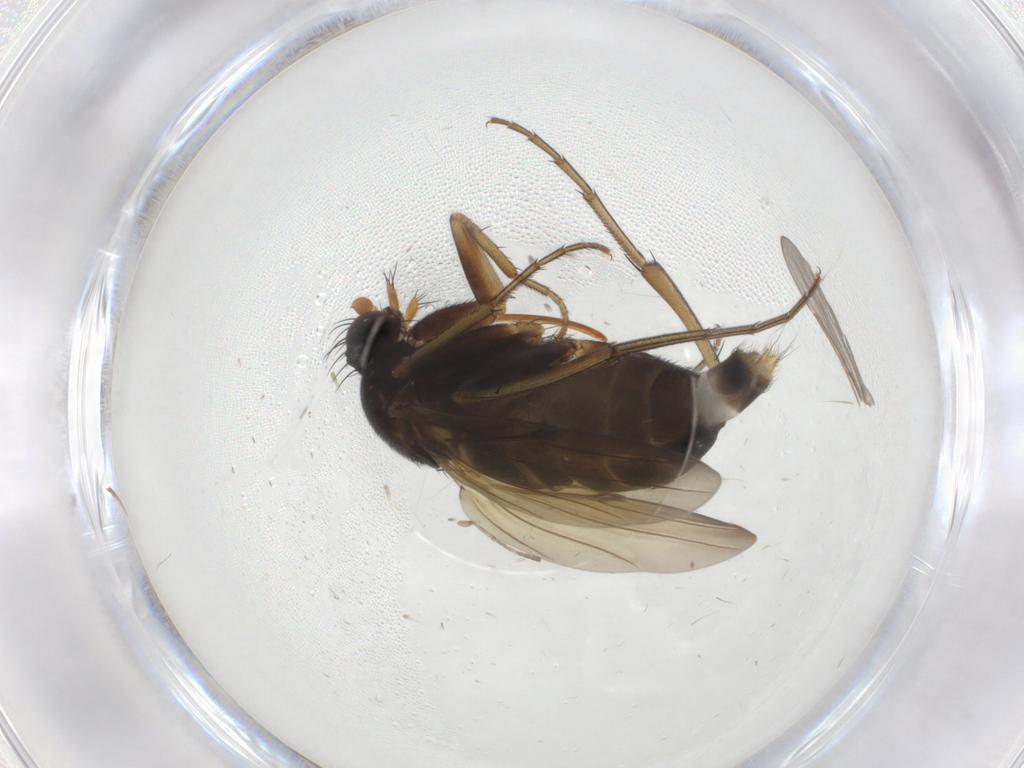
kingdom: Animalia
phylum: Arthropoda
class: Insecta
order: Diptera
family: Phoridae
